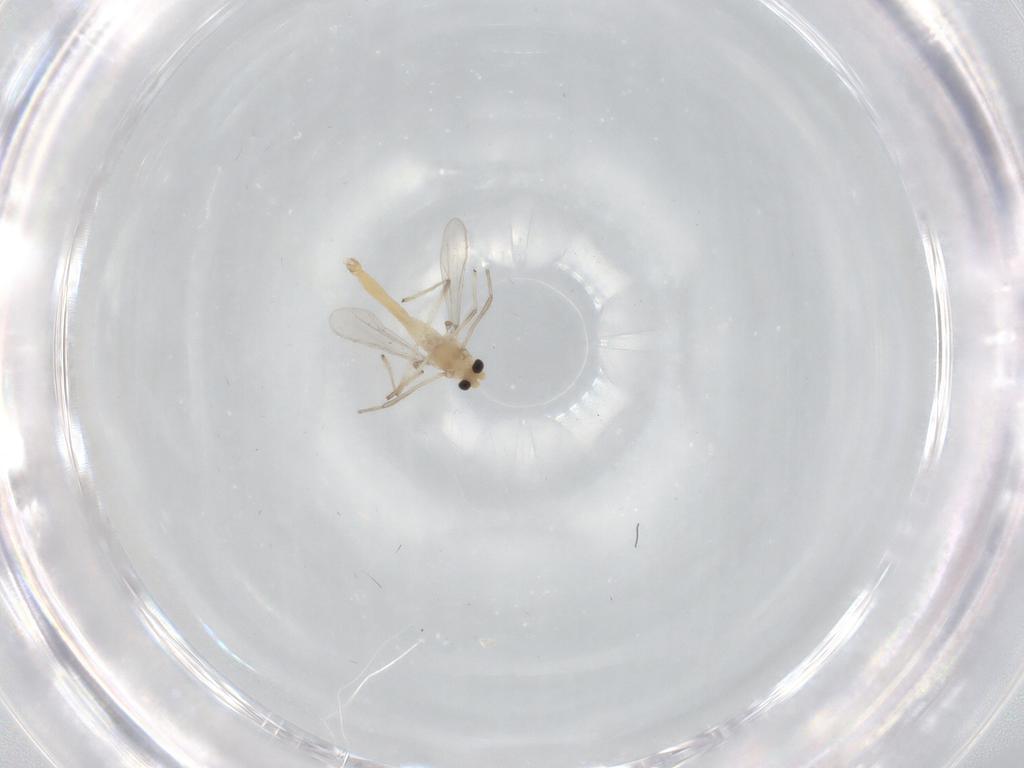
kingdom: Animalia
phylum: Arthropoda
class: Insecta
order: Diptera
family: Chironomidae
